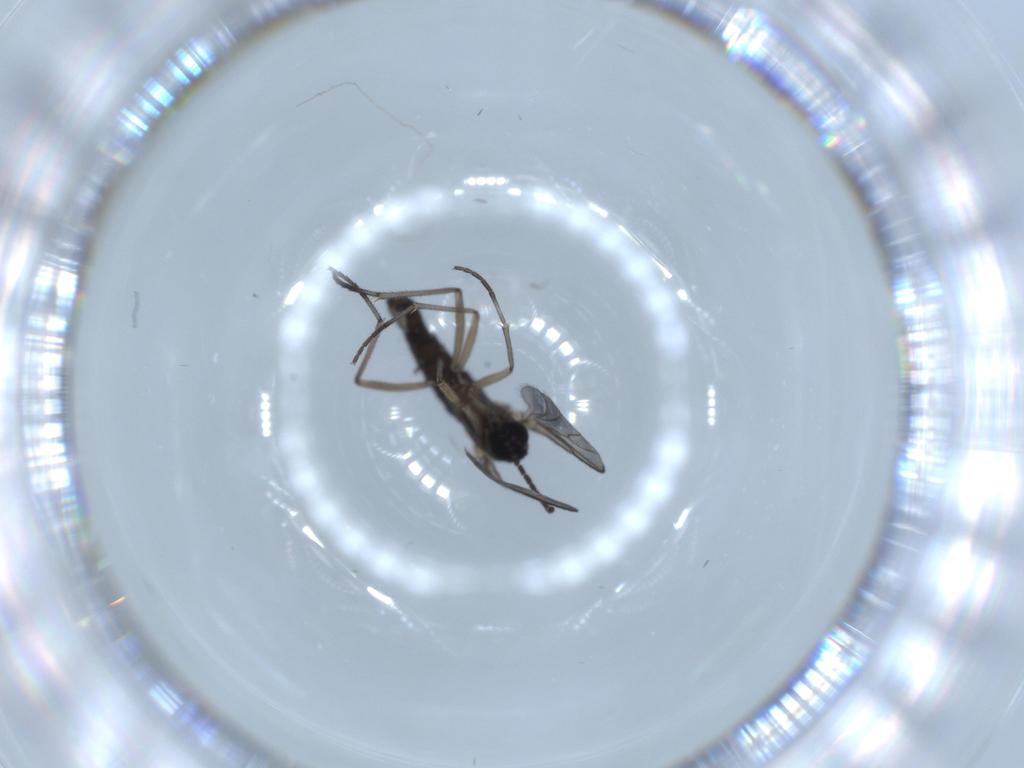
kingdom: Animalia
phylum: Arthropoda
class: Insecta
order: Diptera
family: Sciaridae
